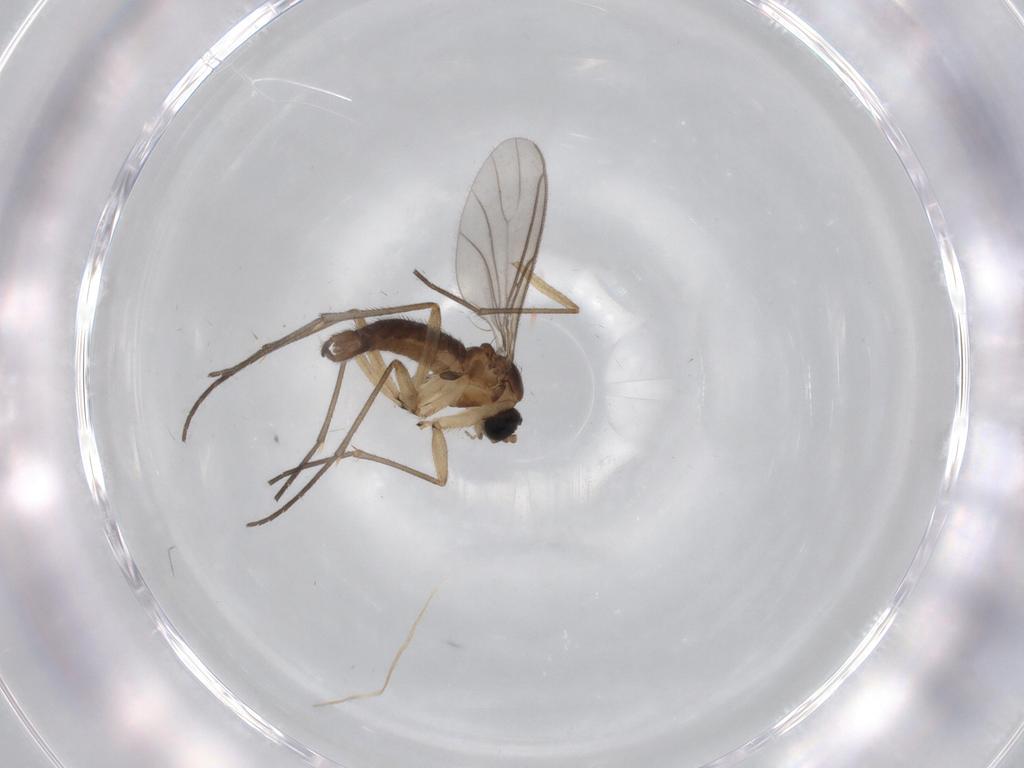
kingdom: Animalia
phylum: Arthropoda
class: Insecta
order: Diptera
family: Sciaridae
